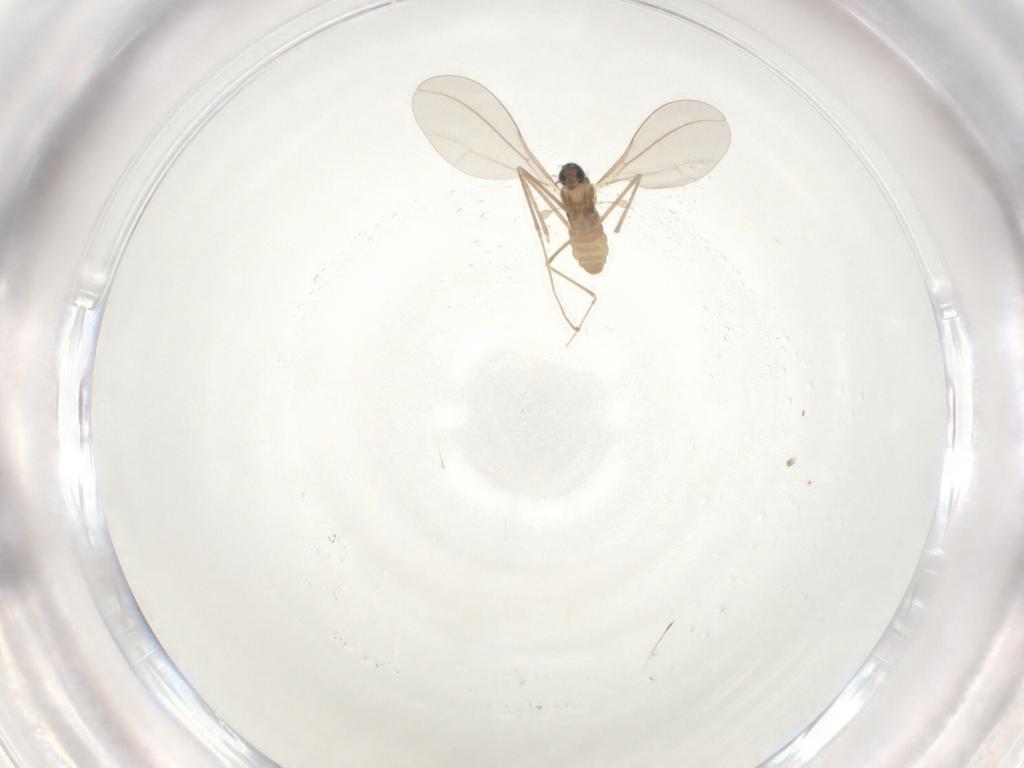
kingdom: Animalia
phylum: Arthropoda
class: Insecta
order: Diptera
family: Cecidomyiidae
